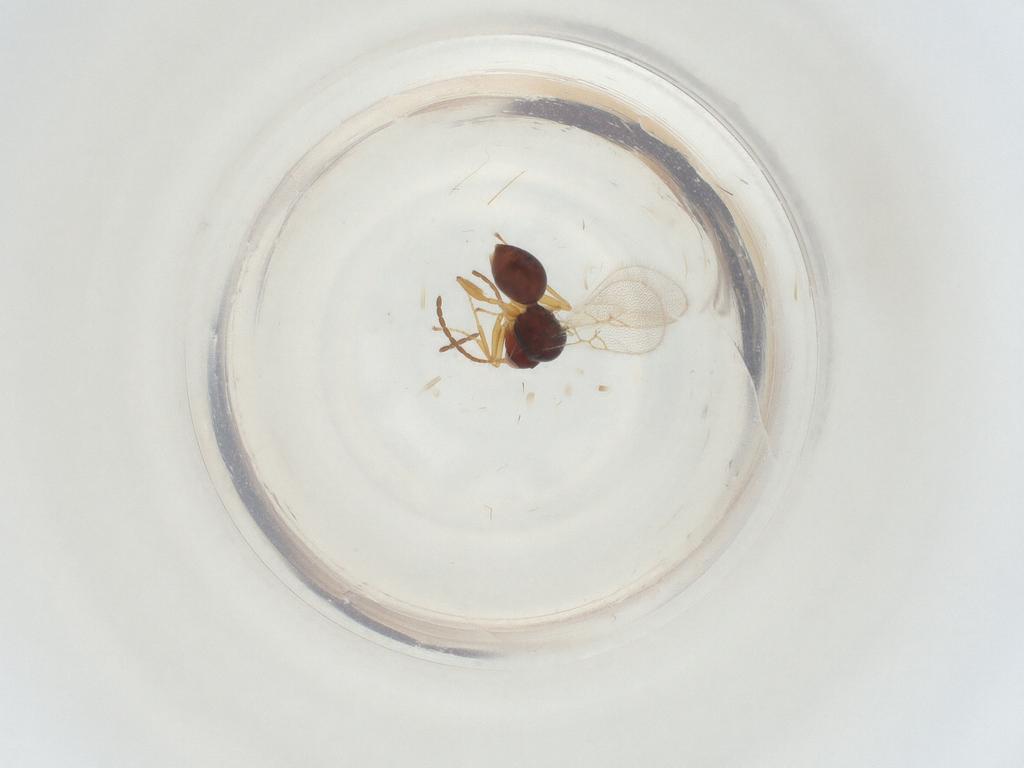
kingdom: Animalia
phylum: Arthropoda
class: Insecta
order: Hymenoptera
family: Figitidae
